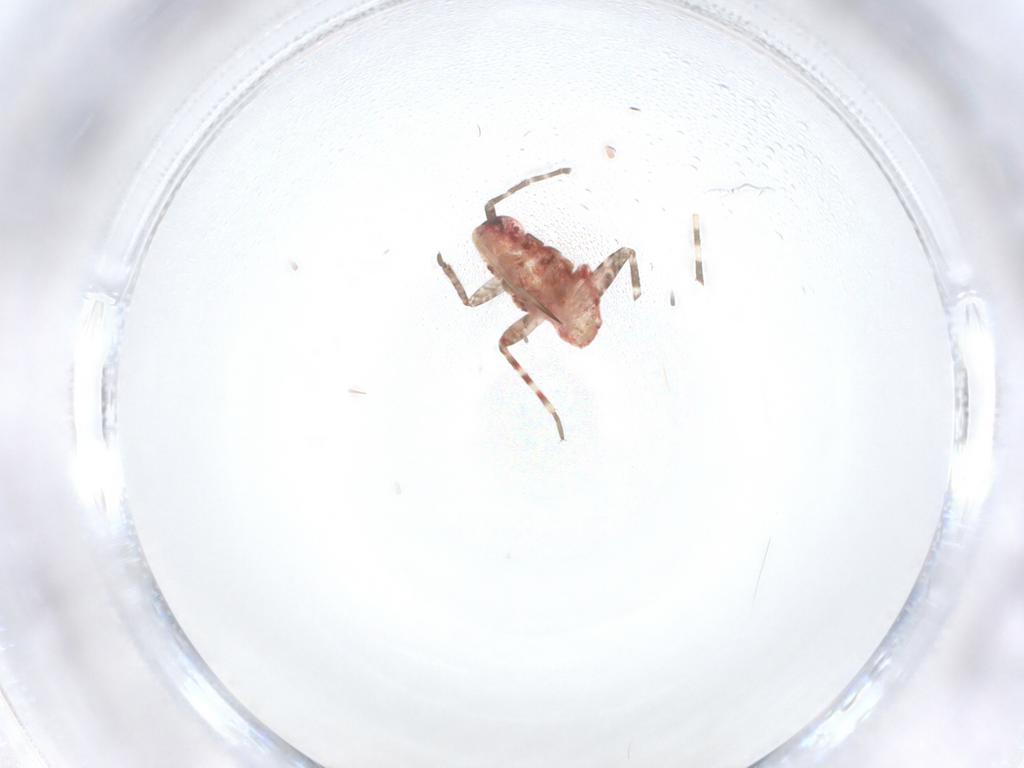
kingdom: Animalia
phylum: Arthropoda
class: Insecta
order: Hemiptera
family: Miridae
